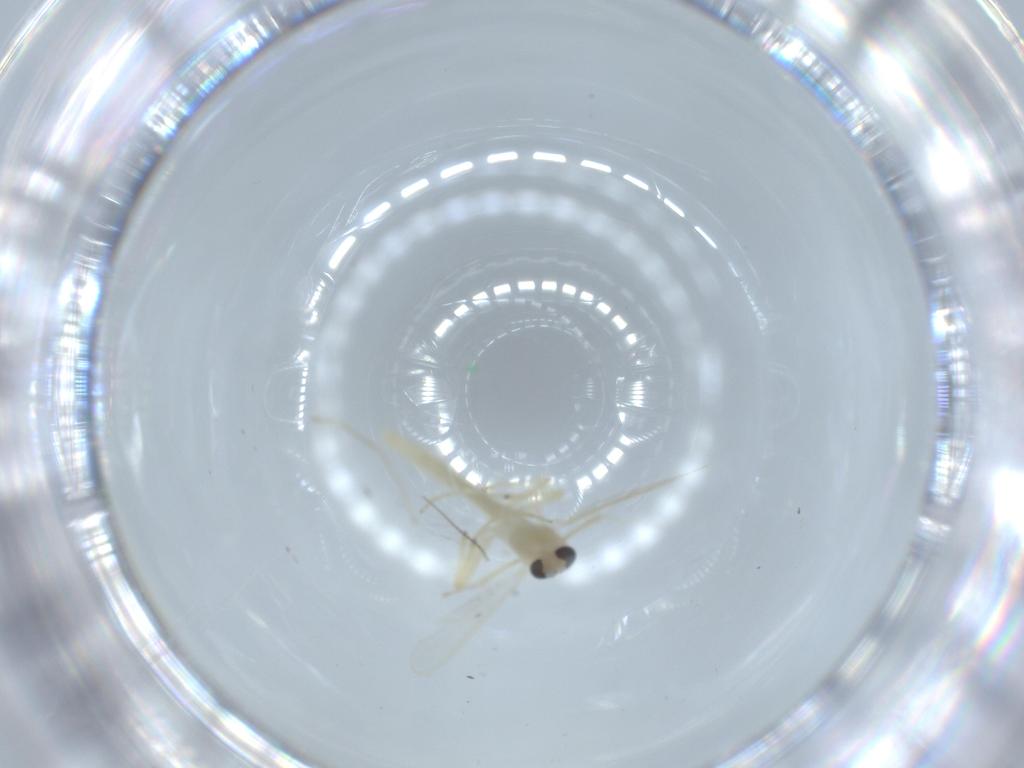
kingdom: Animalia
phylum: Arthropoda
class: Insecta
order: Diptera
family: Chironomidae
